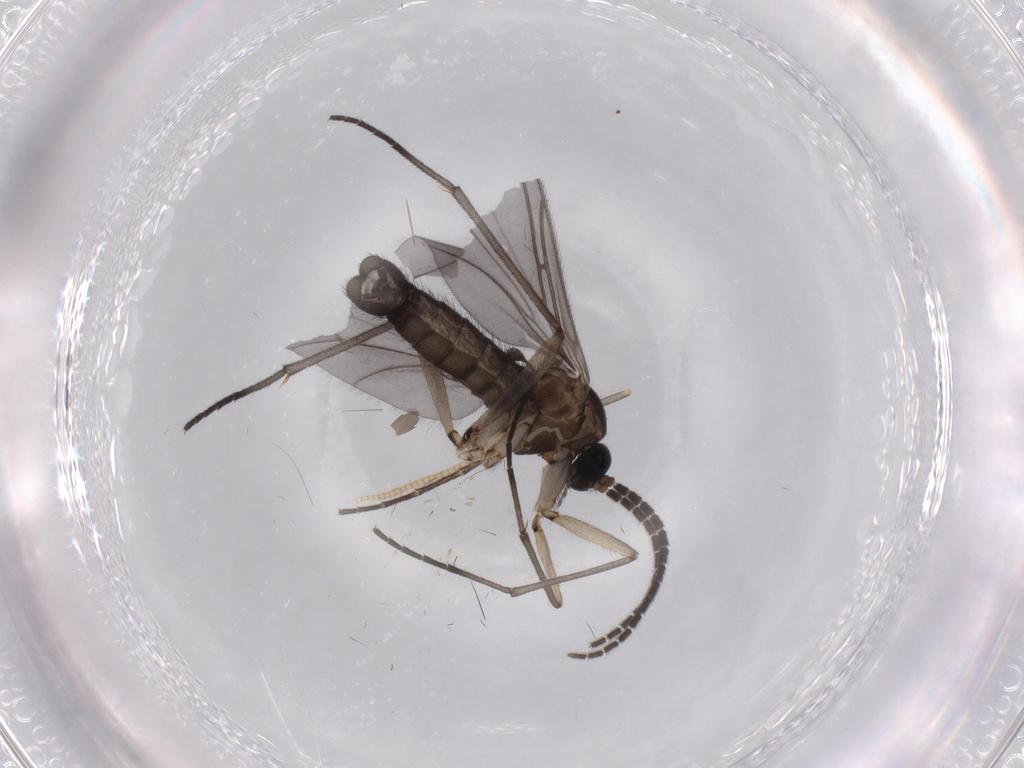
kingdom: Animalia
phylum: Arthropoda
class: Insecta
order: Diptera
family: Sciaridae
